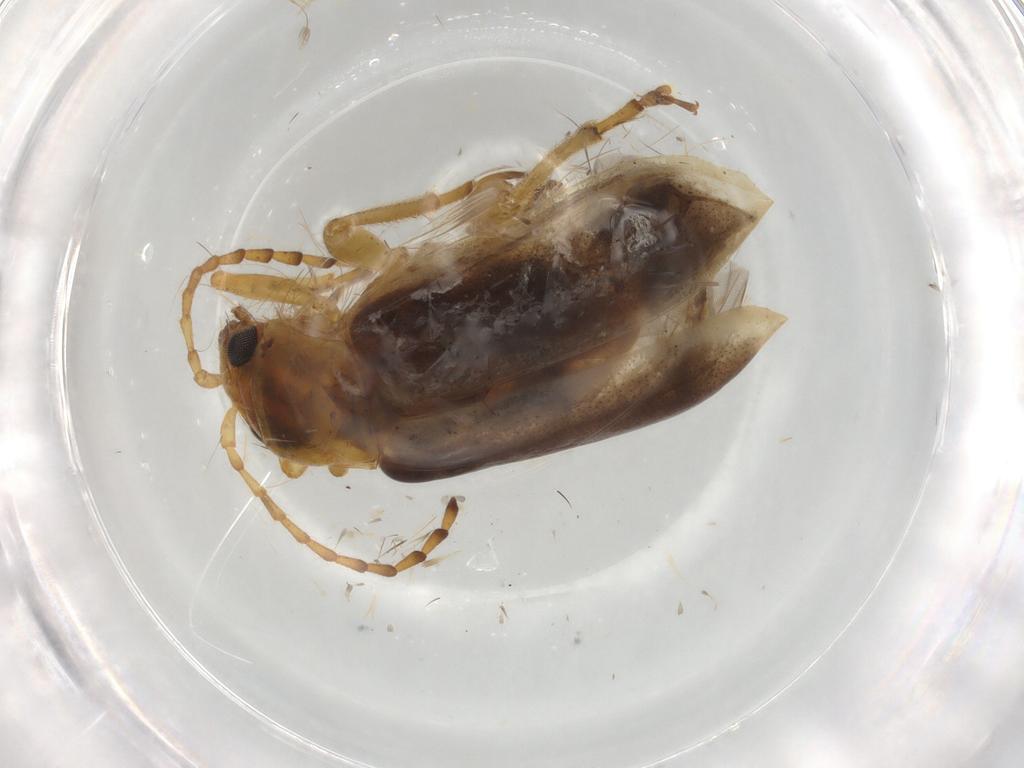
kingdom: Animalia
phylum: Arthropoda
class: Insecta
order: Coleoptera
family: Chrysomelidae
